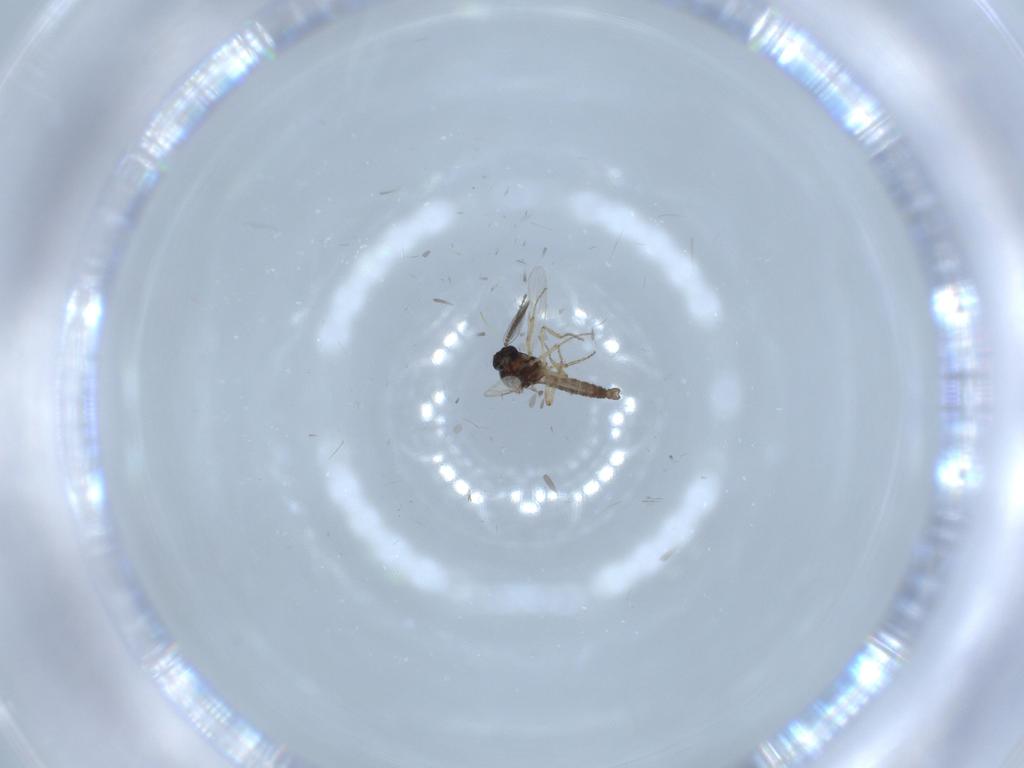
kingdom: Animalia
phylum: Arthropoda
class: Insecta
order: Diptera
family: Ceratopogonidae
